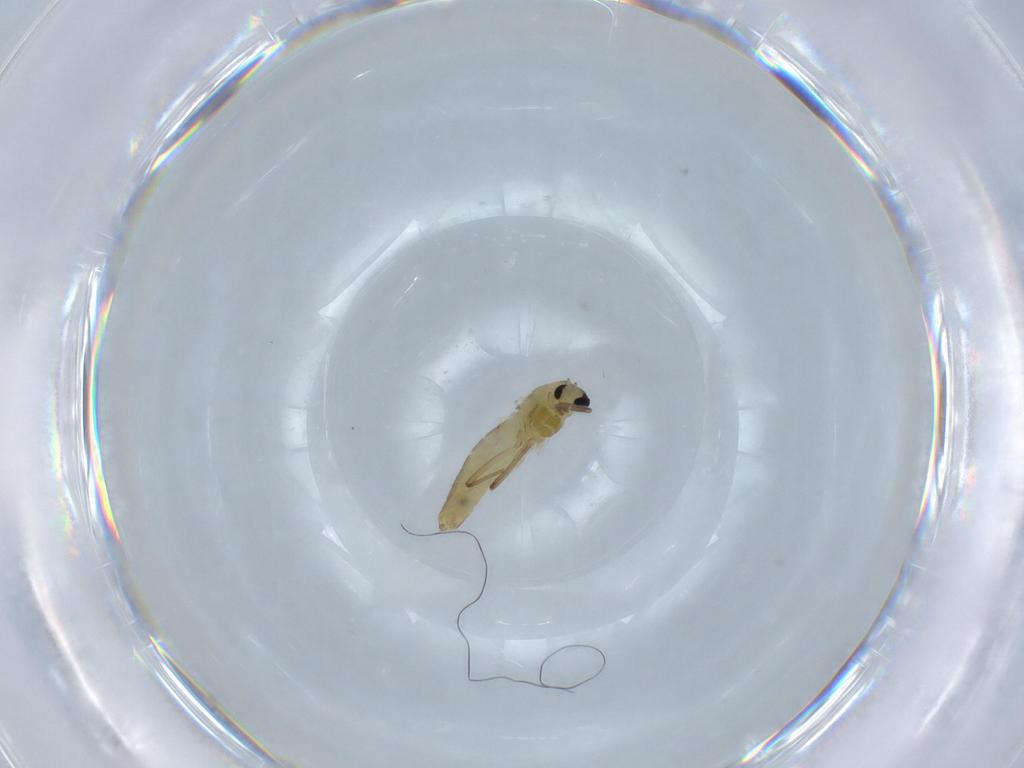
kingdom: Animalia
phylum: Arthropoda
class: Insecta
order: Diptera
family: Chironomidae
